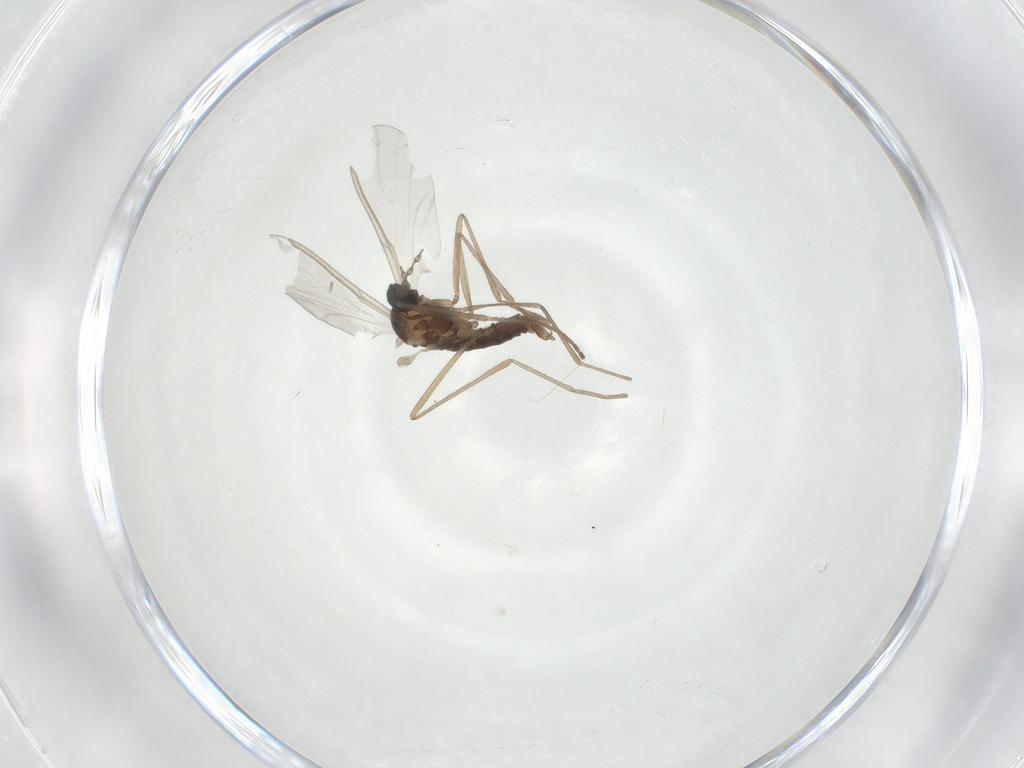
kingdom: Animalia
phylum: Arthropoda
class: Insecta
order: Diptera
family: Cecidomyiidae
